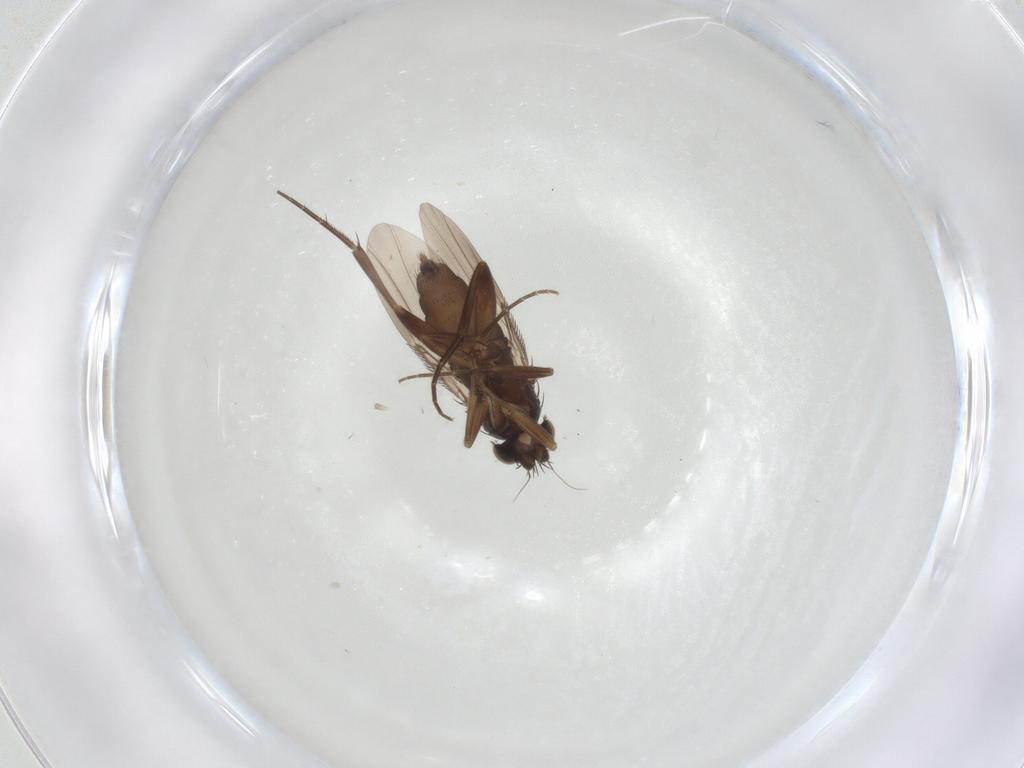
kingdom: Animalia
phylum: Arthropoda
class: Insecta
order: Diptera
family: Phoridae
